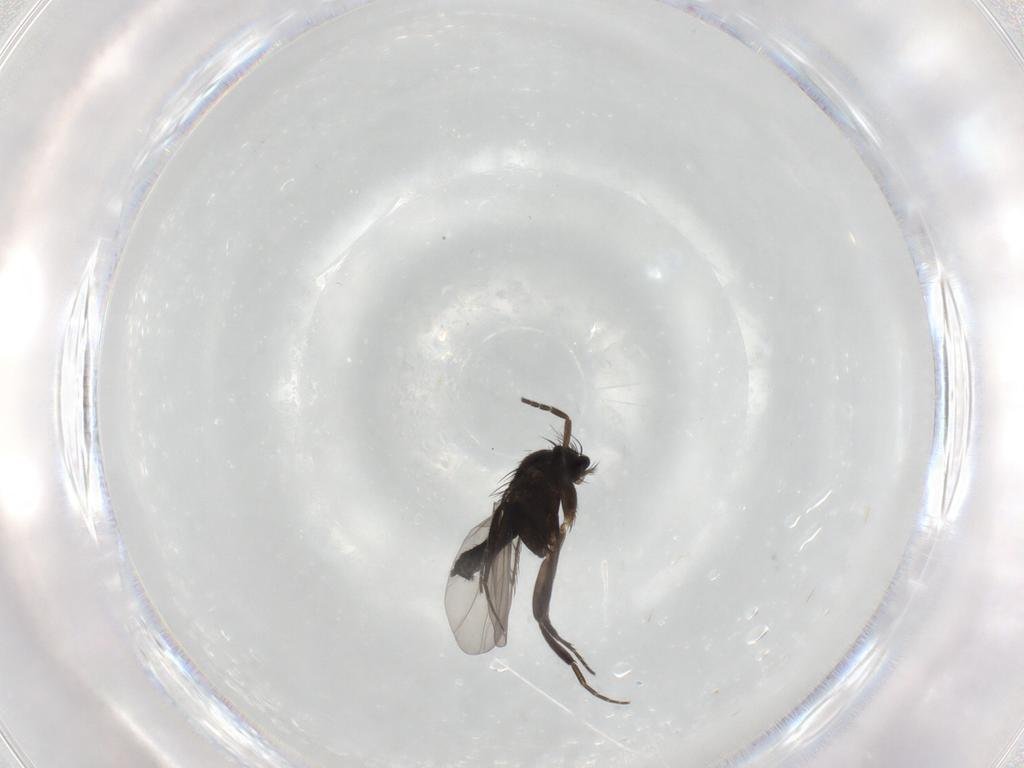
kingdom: Animalia
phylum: Arthropoda
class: Insecta
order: Diptera
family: Phoridae
